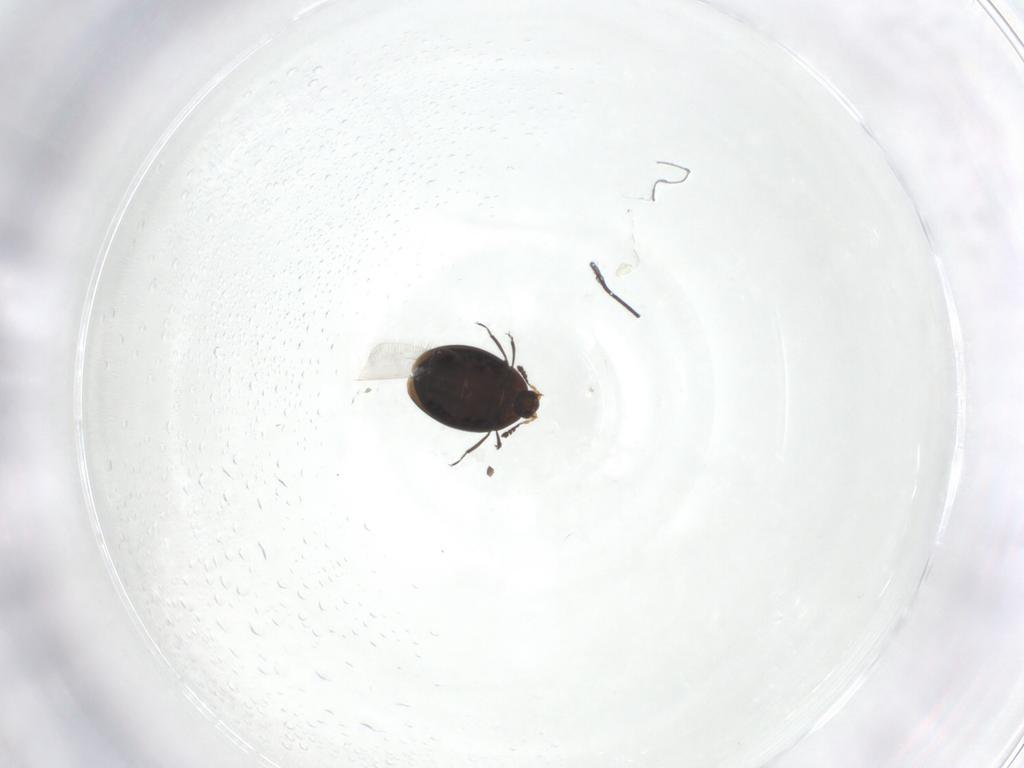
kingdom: Animalia
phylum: Arthropoda
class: Insecta
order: Coleoptera
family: Corylophidae
